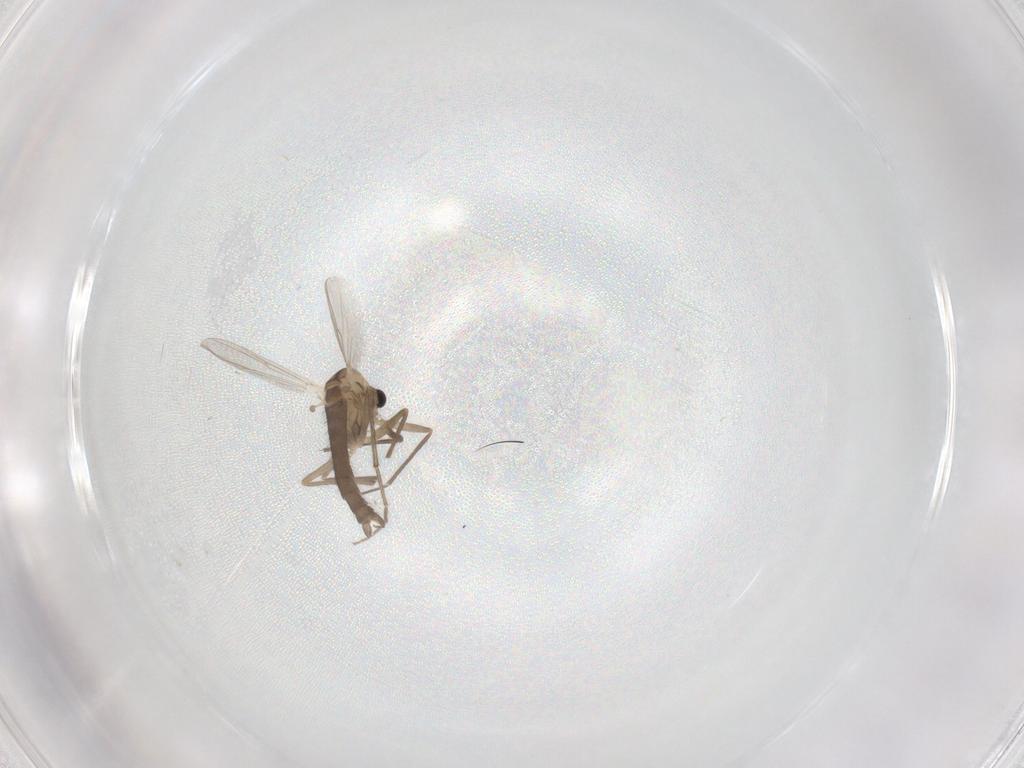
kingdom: Animalia
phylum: Arthropoda
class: Insecta
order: Diptera
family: Chironomidae
